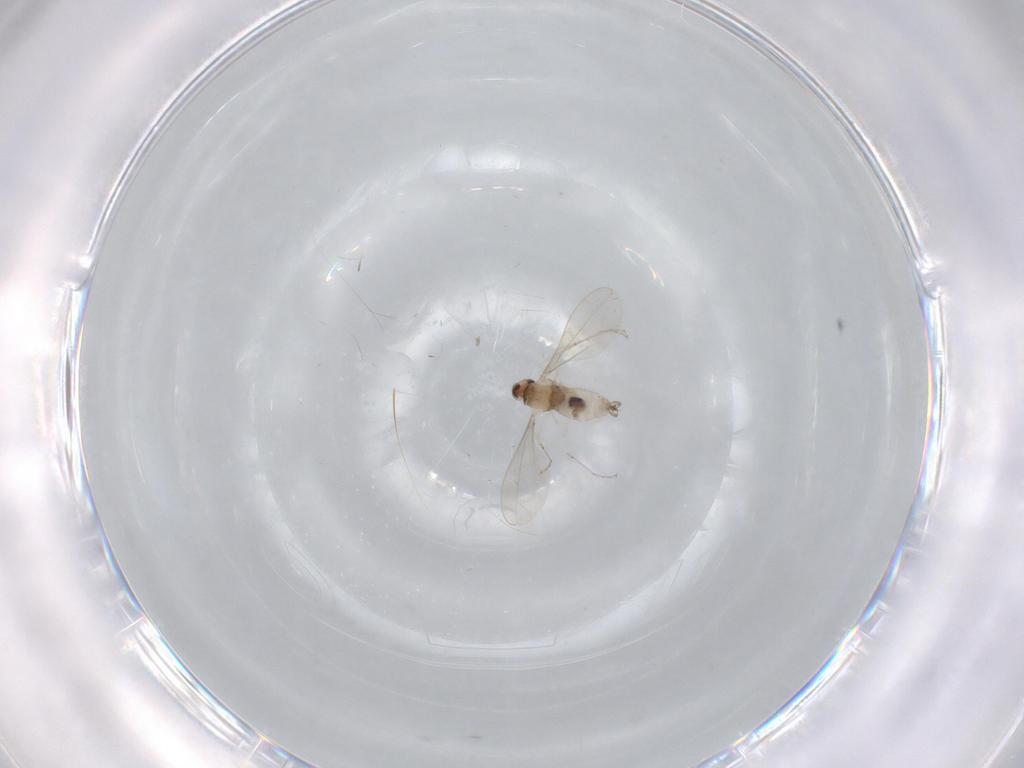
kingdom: Animalia
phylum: Arthropoda
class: Insecta
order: Diptera
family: Cecidomyiidae
